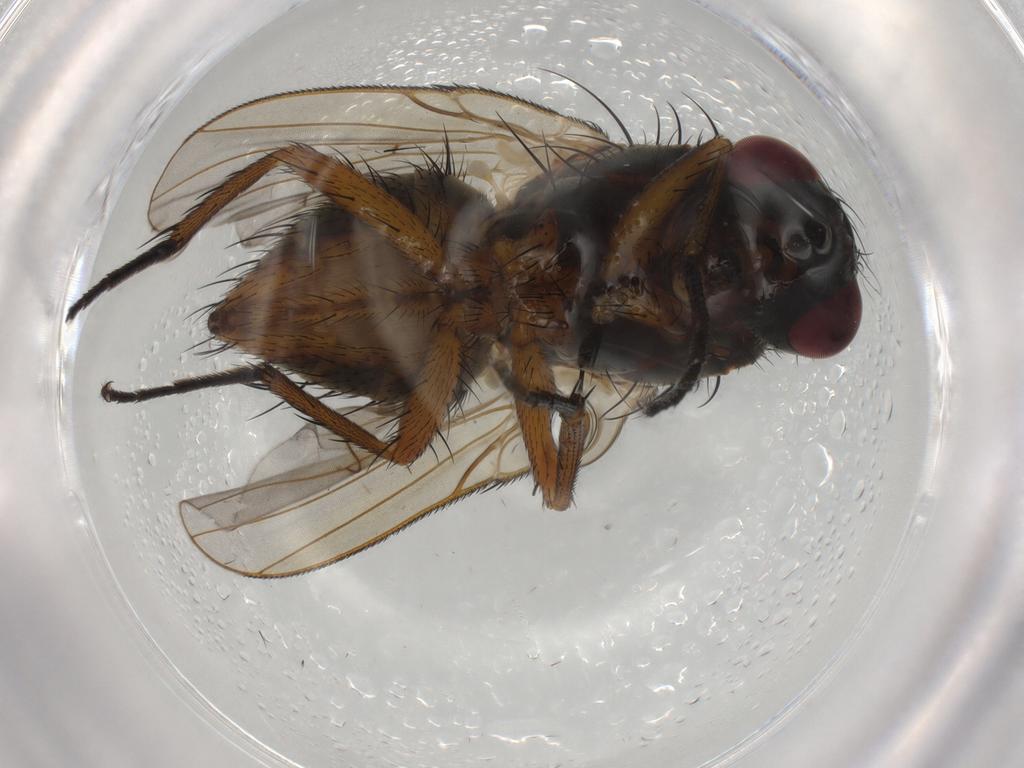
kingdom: Animalia
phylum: Arthropoda
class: Insecta
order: Diptera
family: Muscidae
